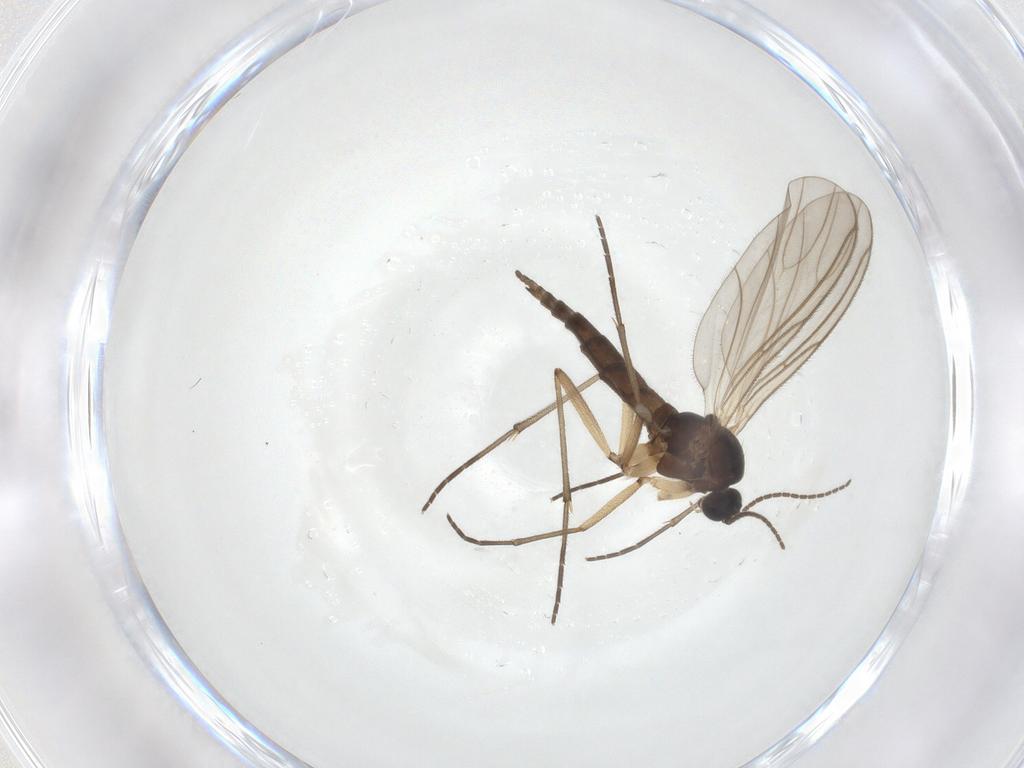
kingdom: Animalia
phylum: Arthropoda
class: Insecta
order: Diptera
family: Sciaridae
